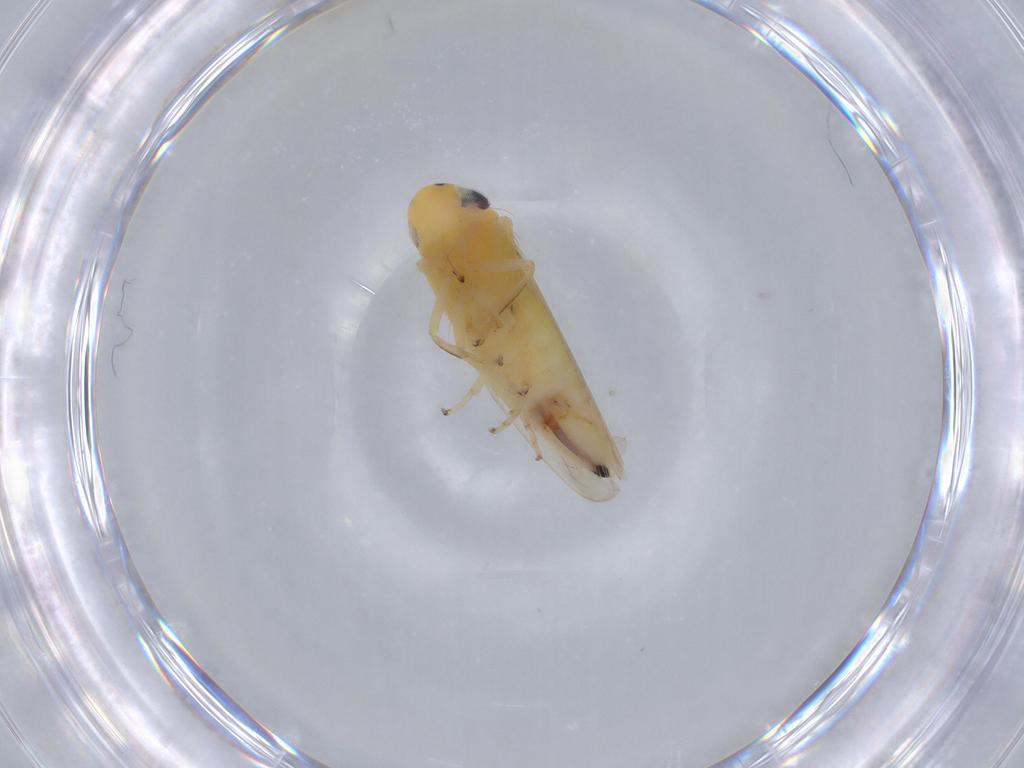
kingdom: Animalia
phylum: Arthropoda
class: Insecta
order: Hemiptera
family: Cicadellidae
